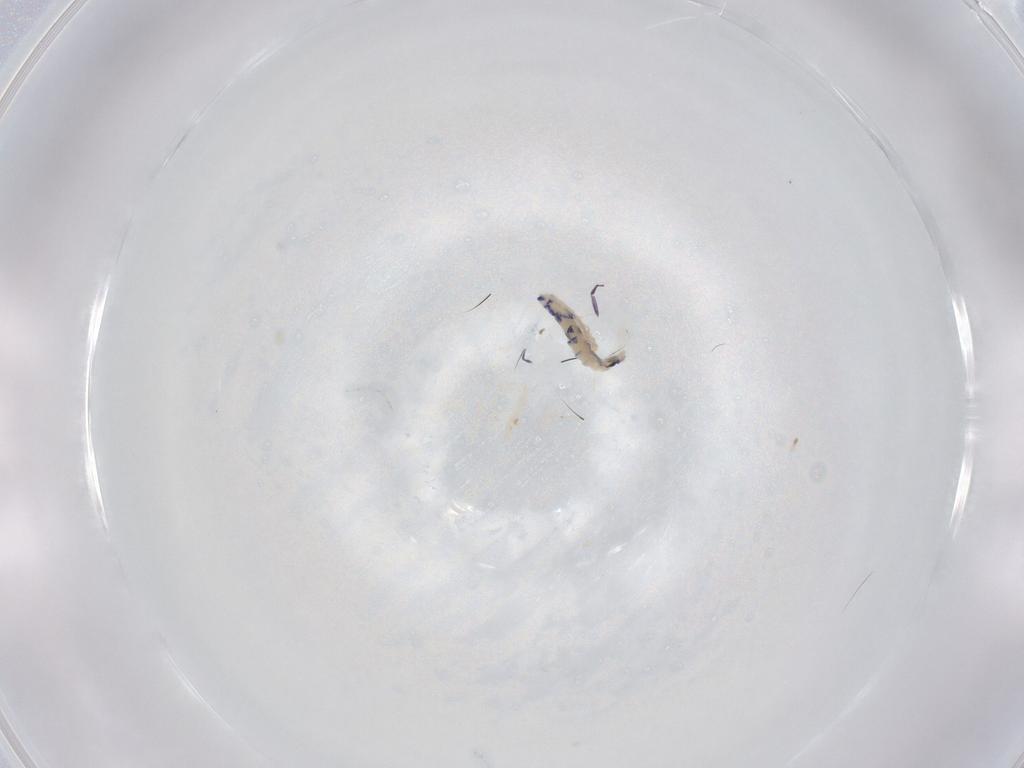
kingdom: Animalia
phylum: Arthropoda
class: Collembola
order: Entomobryomorpha
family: Entomobryidae
